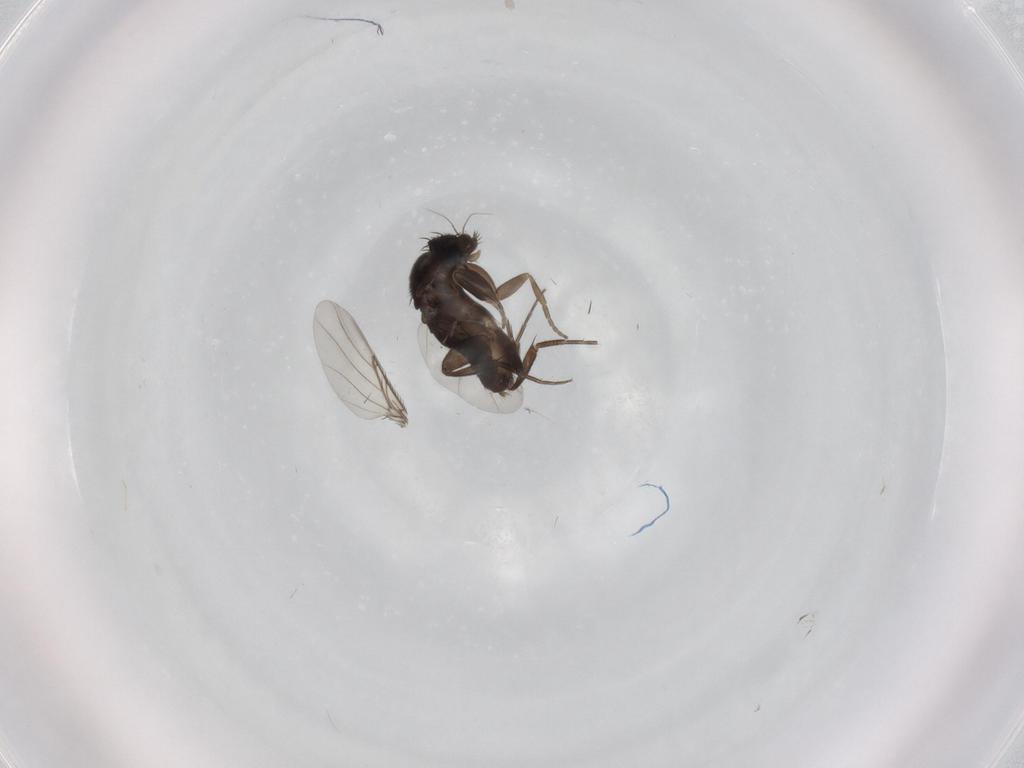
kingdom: Animalia
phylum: Arthropoda
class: Insecta
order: Diptera
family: Phoridae
